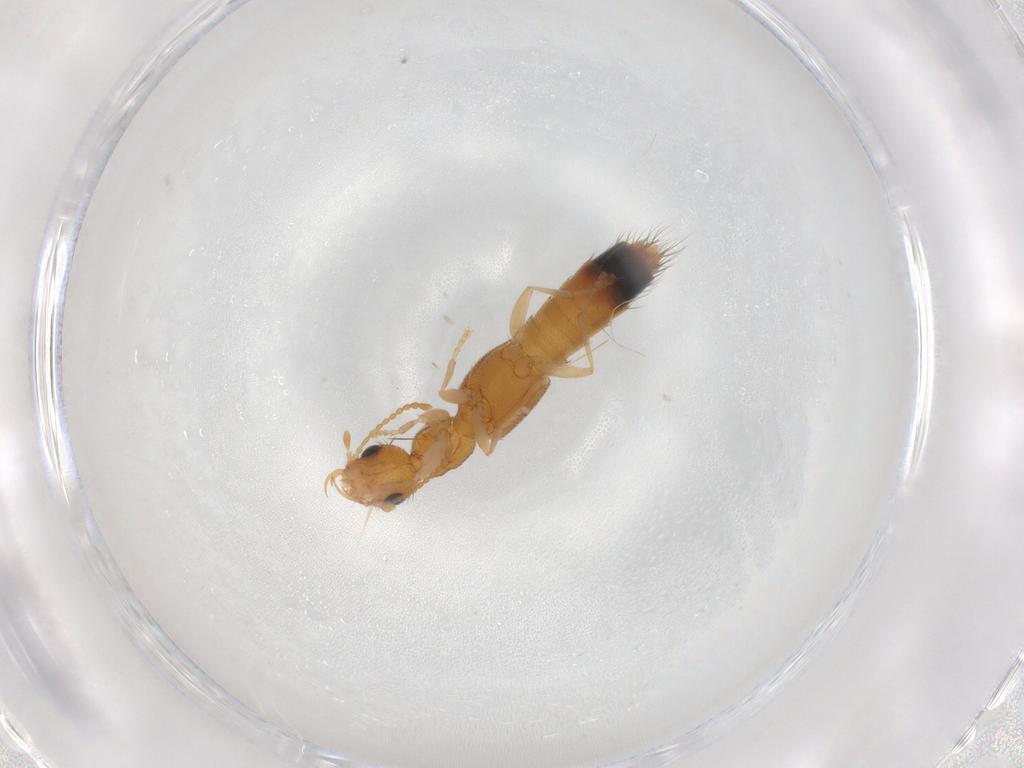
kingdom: Animalia
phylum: Arthropoda
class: Insecta
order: Coleoptera
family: Staphylinidae
